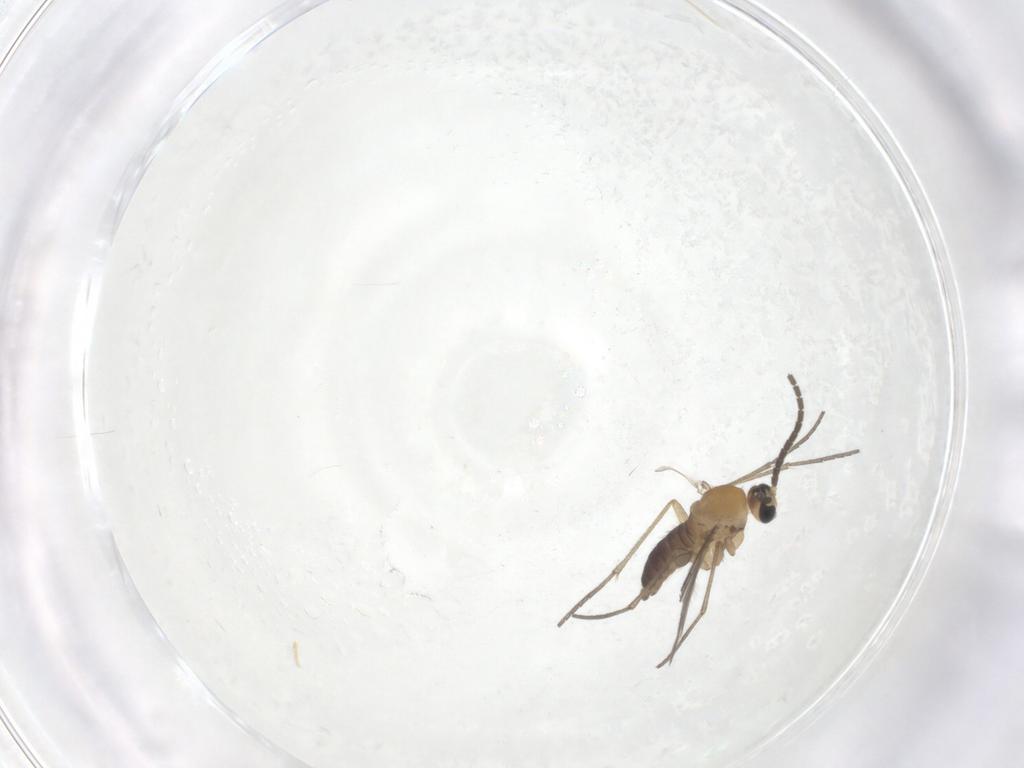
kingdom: Animalia
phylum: Arthropoda
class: Insecta
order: Diptera
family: Sciaridae
